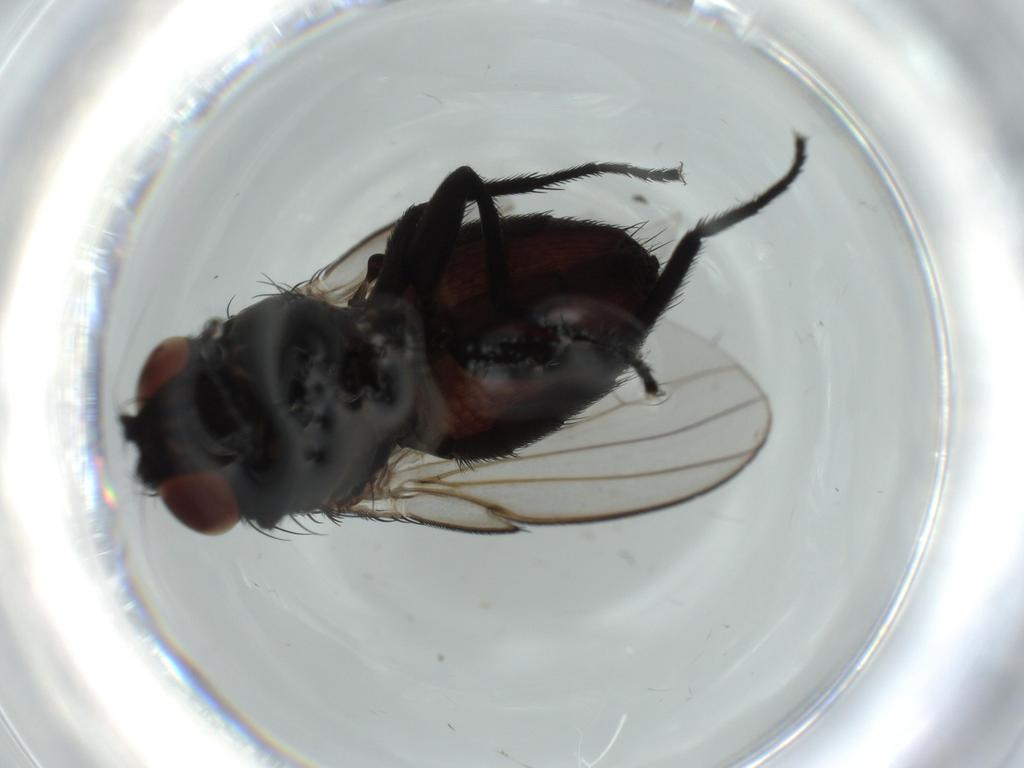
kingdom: Animalia
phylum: Arthropoda
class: Insecta
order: Diptera
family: Milichiidae
